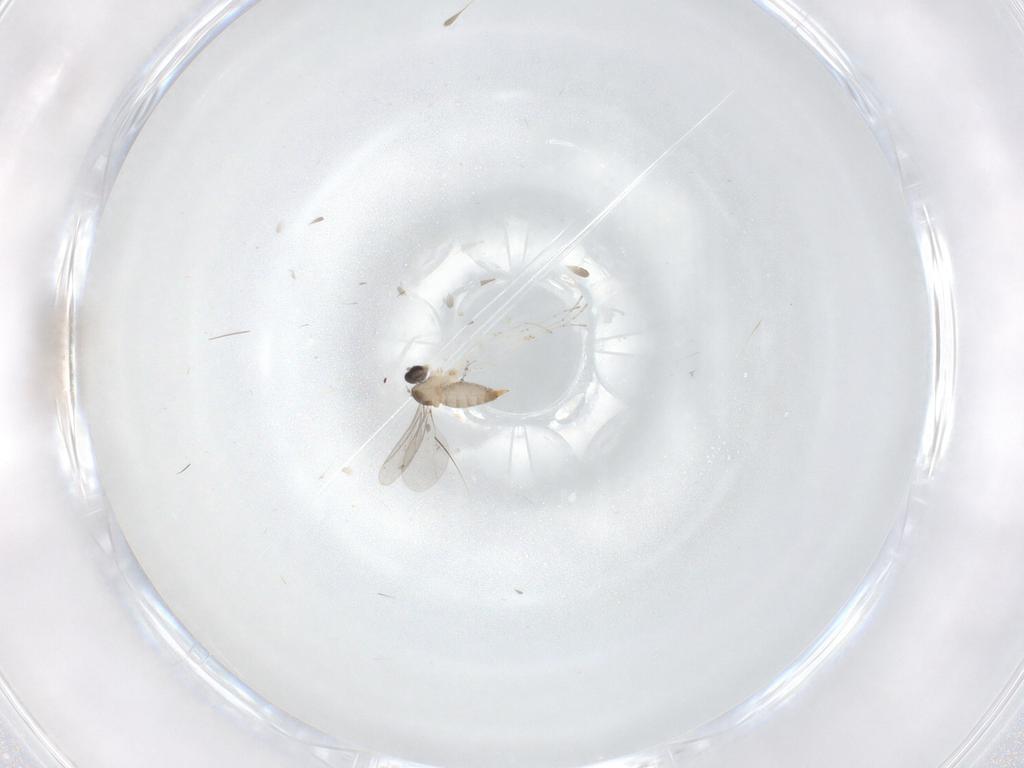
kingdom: Animalia
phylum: Arthropoda
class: Insecta
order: Diptera
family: Cecidomyiidae
